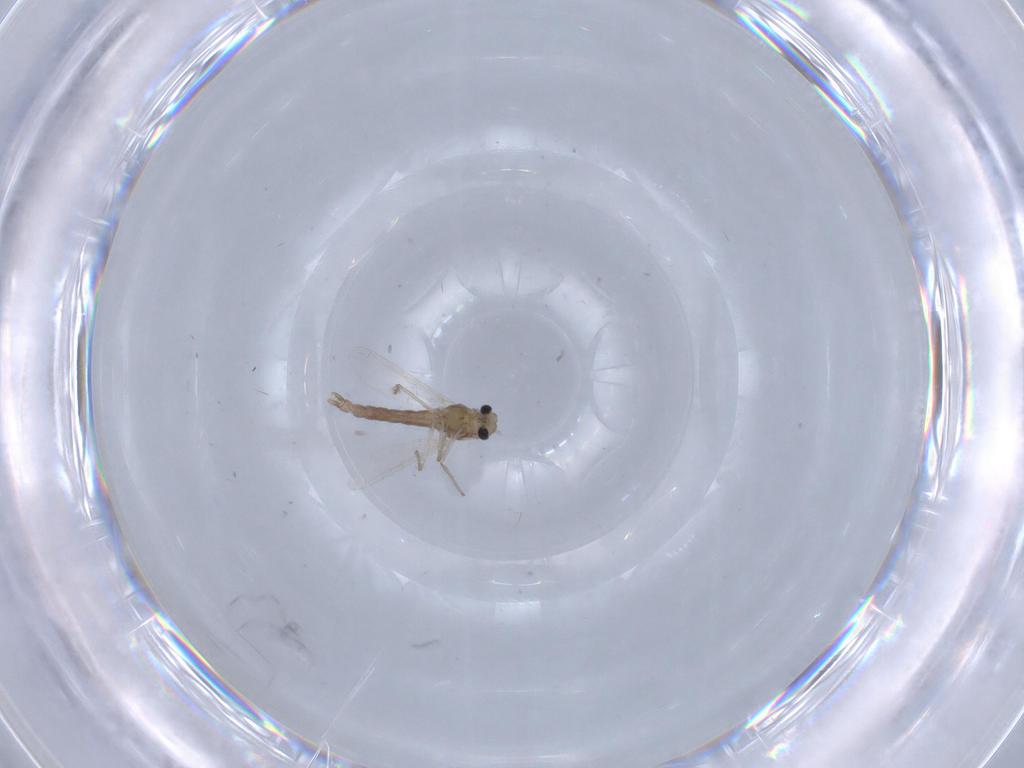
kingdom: Animalia
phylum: Arthropoda
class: Insecta
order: Diptera
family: Chironomidae
